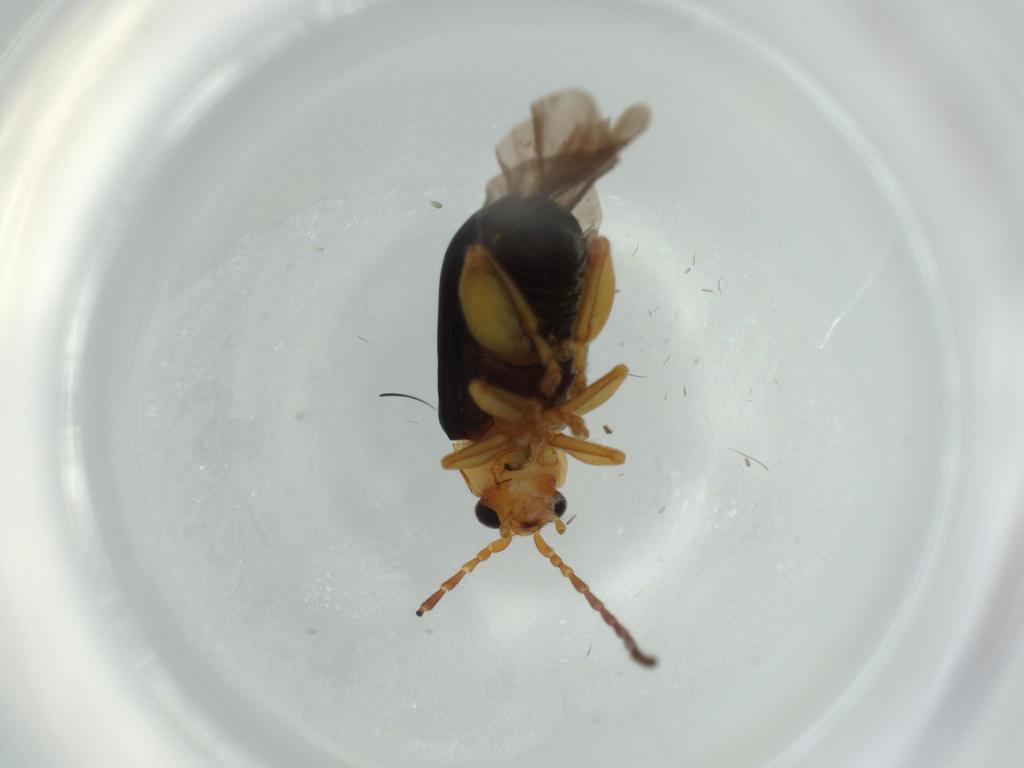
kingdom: Animalia
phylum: Arthropoda
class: Insecta
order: Coleoptera
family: Chrysomelidae
